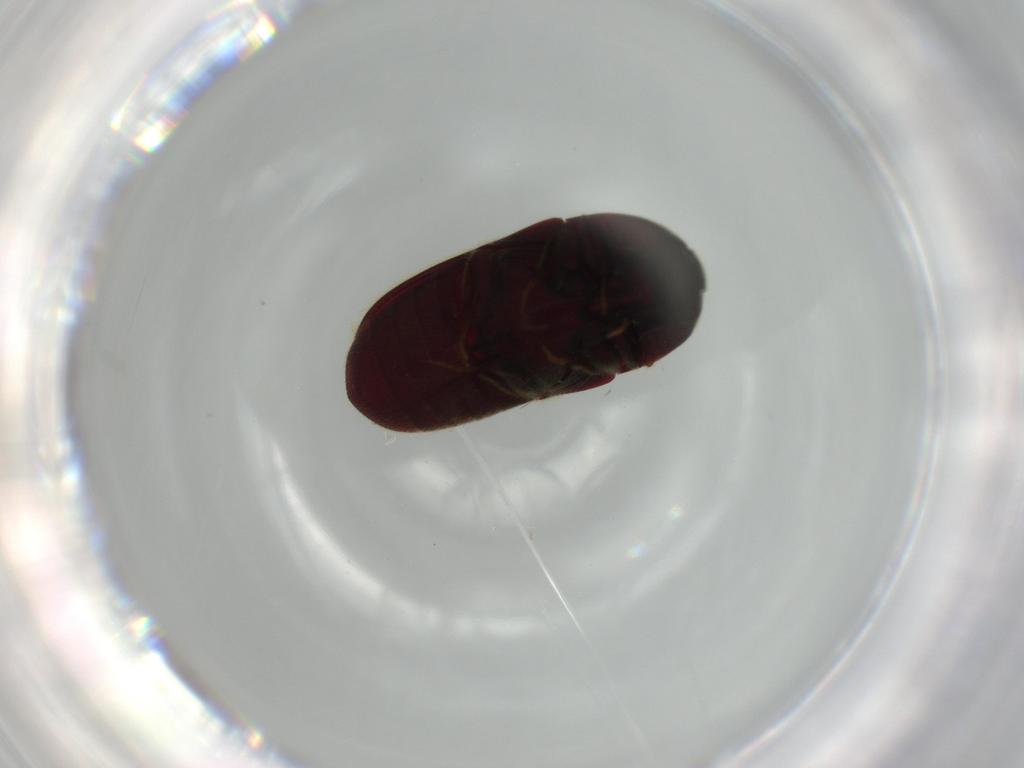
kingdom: Animalia
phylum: Arthropoda
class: Insecta
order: Coleoptera
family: Throscidae
